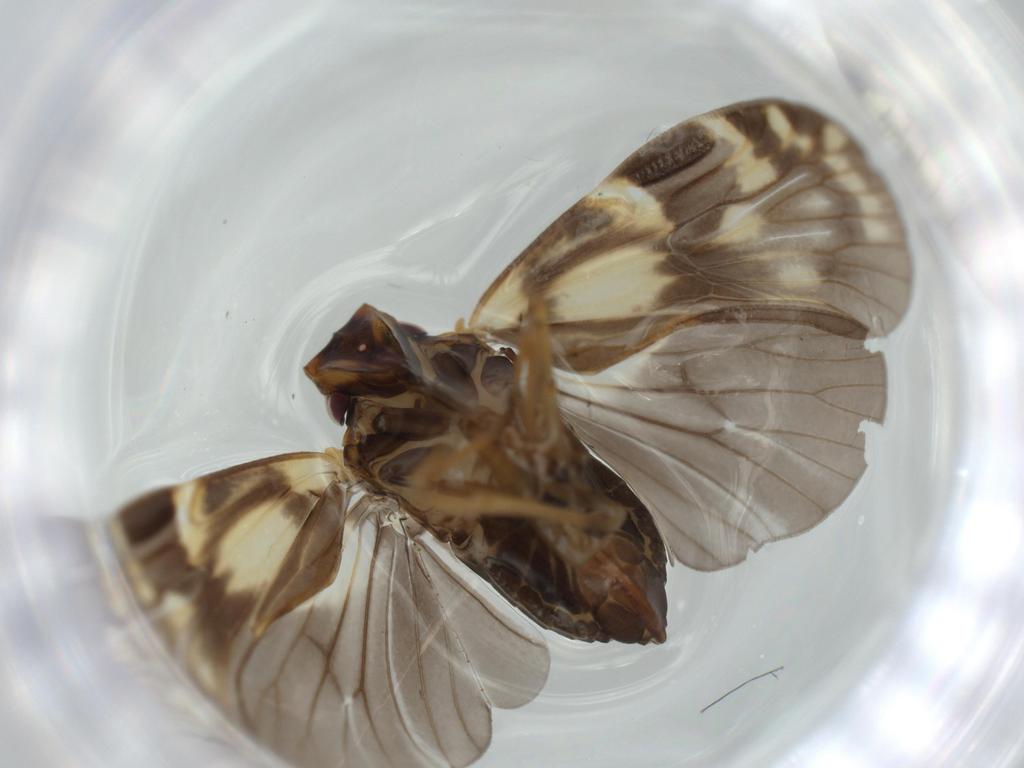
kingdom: Animalia
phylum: Arthropoda
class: Insecta
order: Hemiptera
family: Cixiidae
